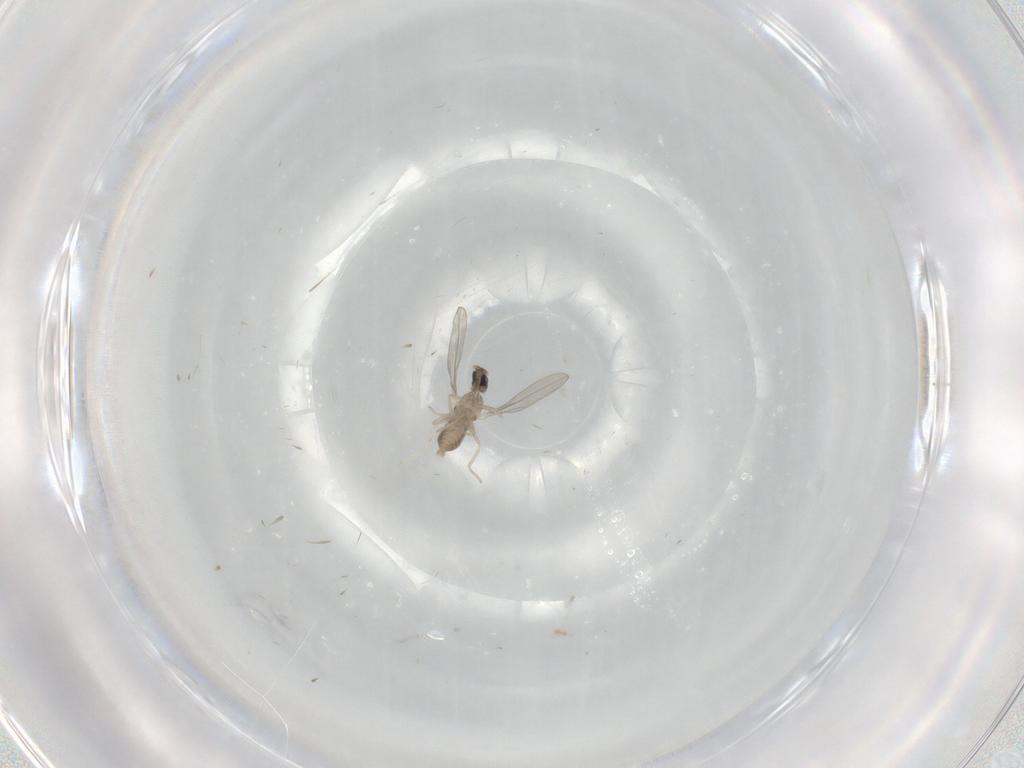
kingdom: Animalia
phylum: Arthropoda
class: Insecta
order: Diptera
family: Cecidomyiidae
